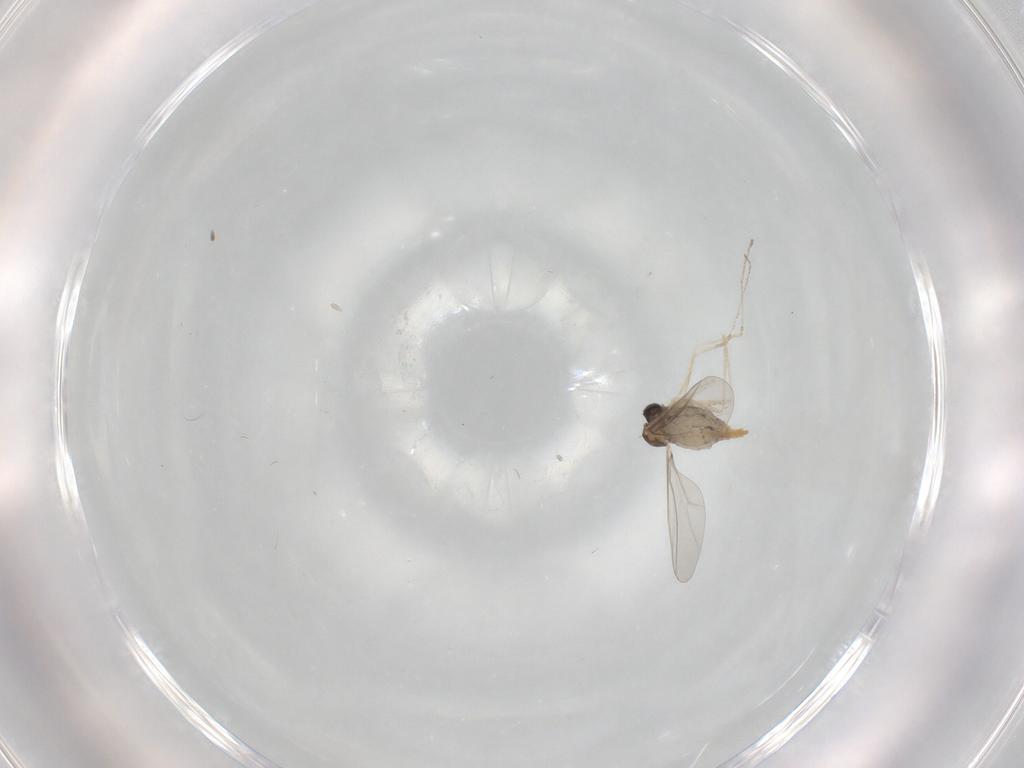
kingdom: Animalia
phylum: Arthropoda
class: Insecta
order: Diptera
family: Cecidomyiidae
